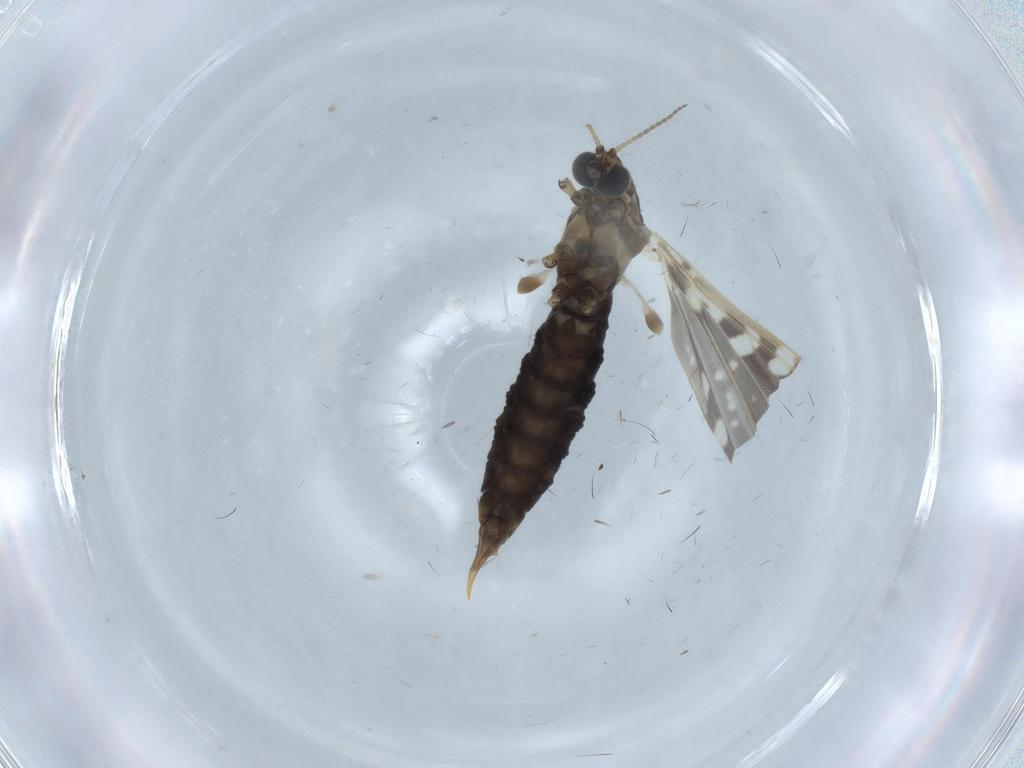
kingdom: Animalia
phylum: Arthropoda
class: Insecta
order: Diptera
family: Limoniidae
